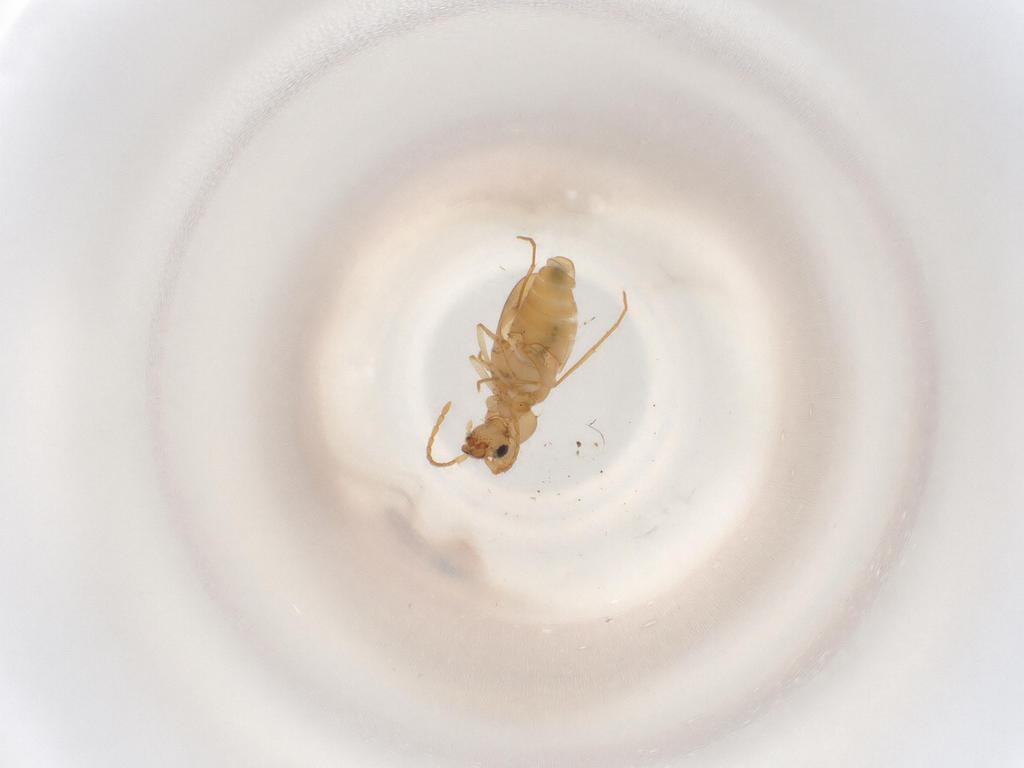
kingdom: Animalia
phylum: Arthropoda
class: Insecta
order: Coleoptera
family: Anthicidae
